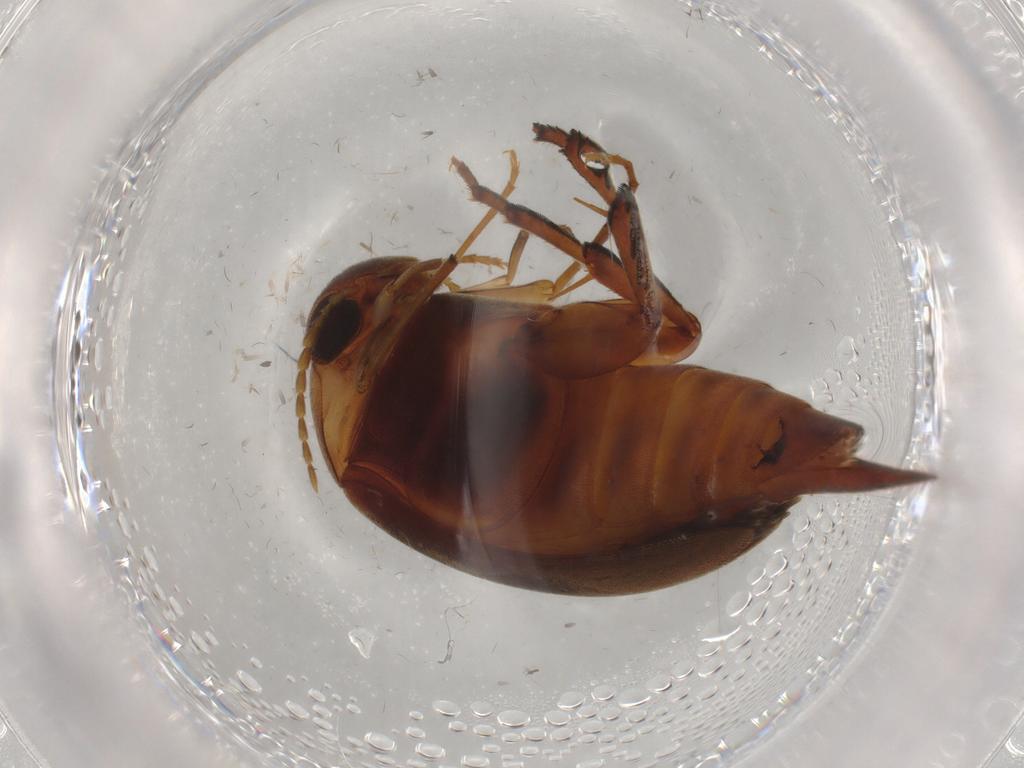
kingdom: Animalia
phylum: Arthropoda
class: Insecta
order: Coleoptera
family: Mordellidae
